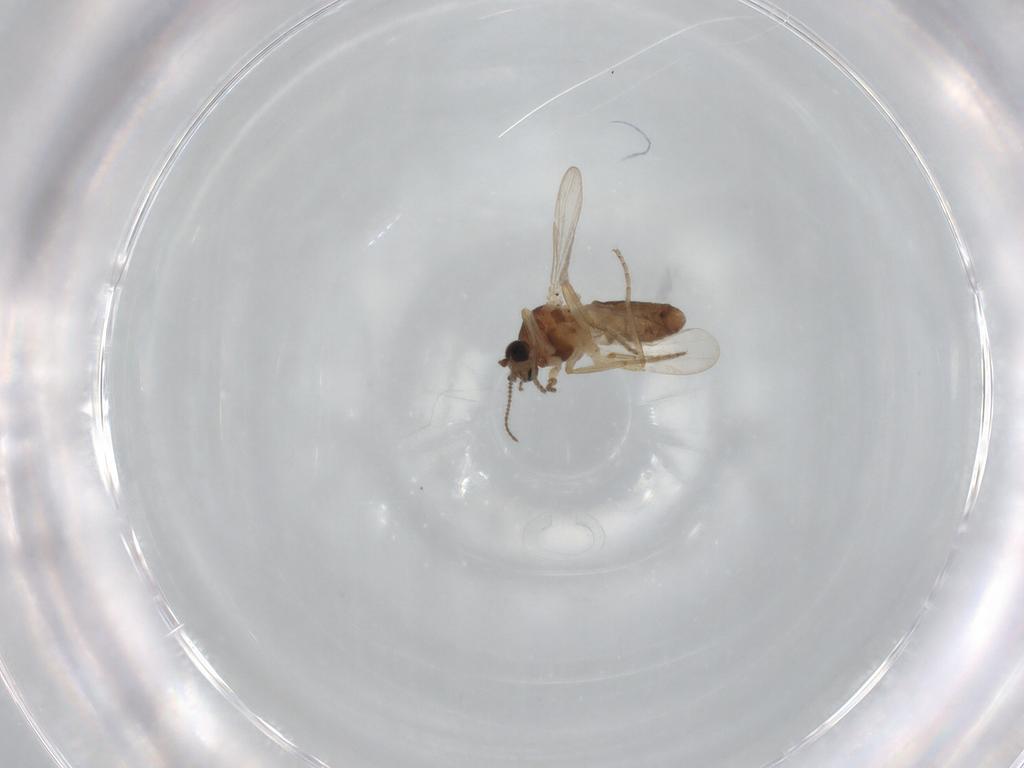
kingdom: Animalia
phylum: Arthropoda
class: Insecta
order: Diptera
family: Ceratopogonidae
